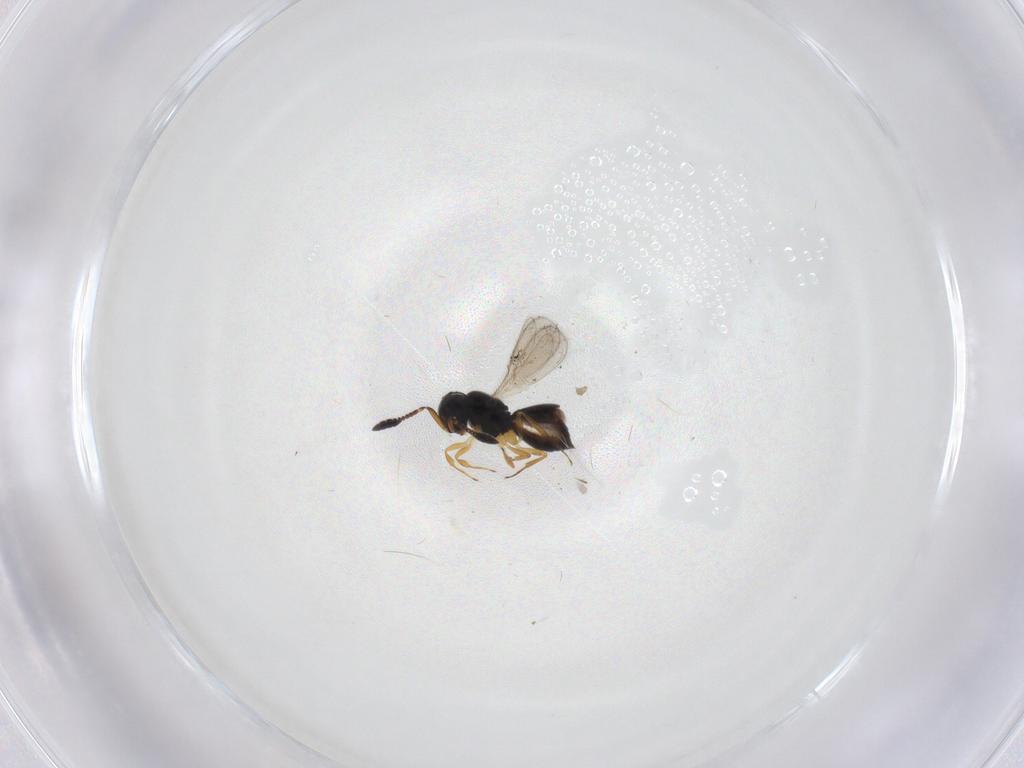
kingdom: Animalia
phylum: Arthropoda
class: Insecta
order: Hymenoptera
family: Scelionidae
